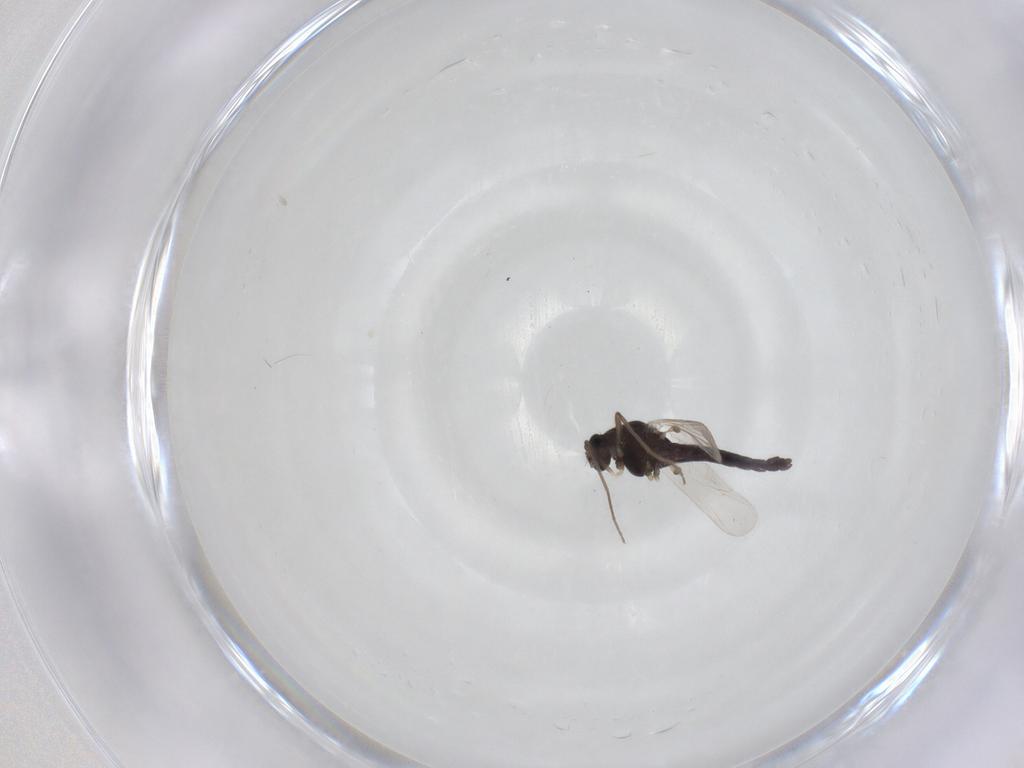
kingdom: Animalia
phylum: Arthropoda
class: Insecta
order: Diptera
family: Chironomidae
